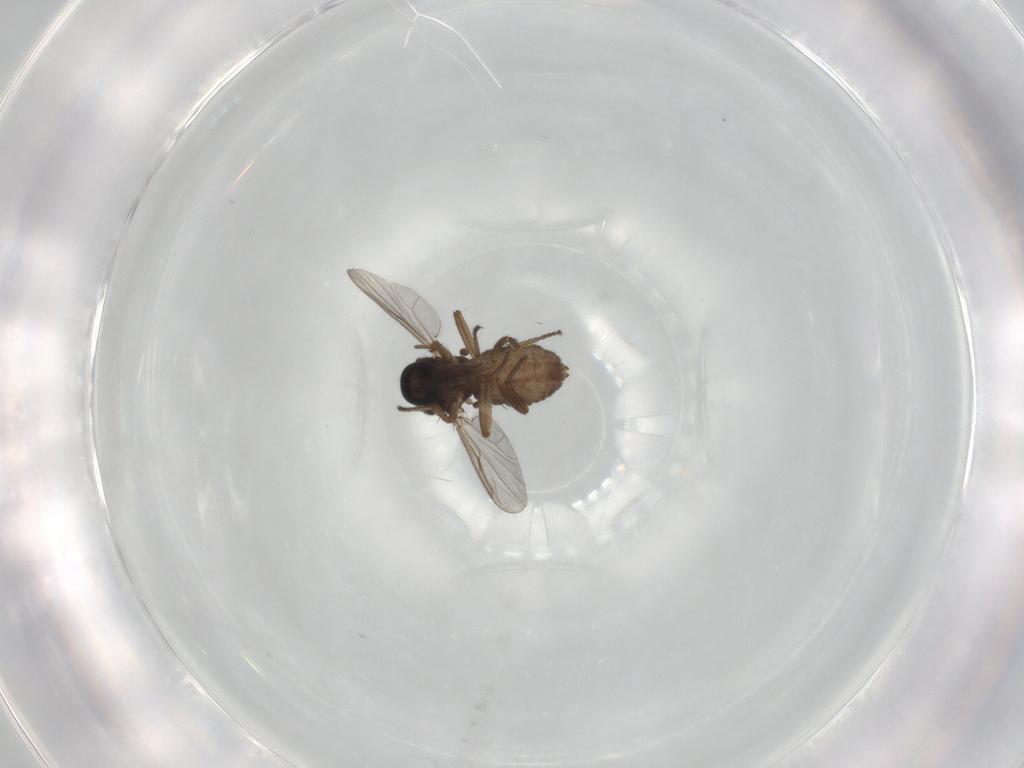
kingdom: Animalia
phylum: Arthropoda
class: Insecta
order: Diptera
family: Ceratopogonidae
